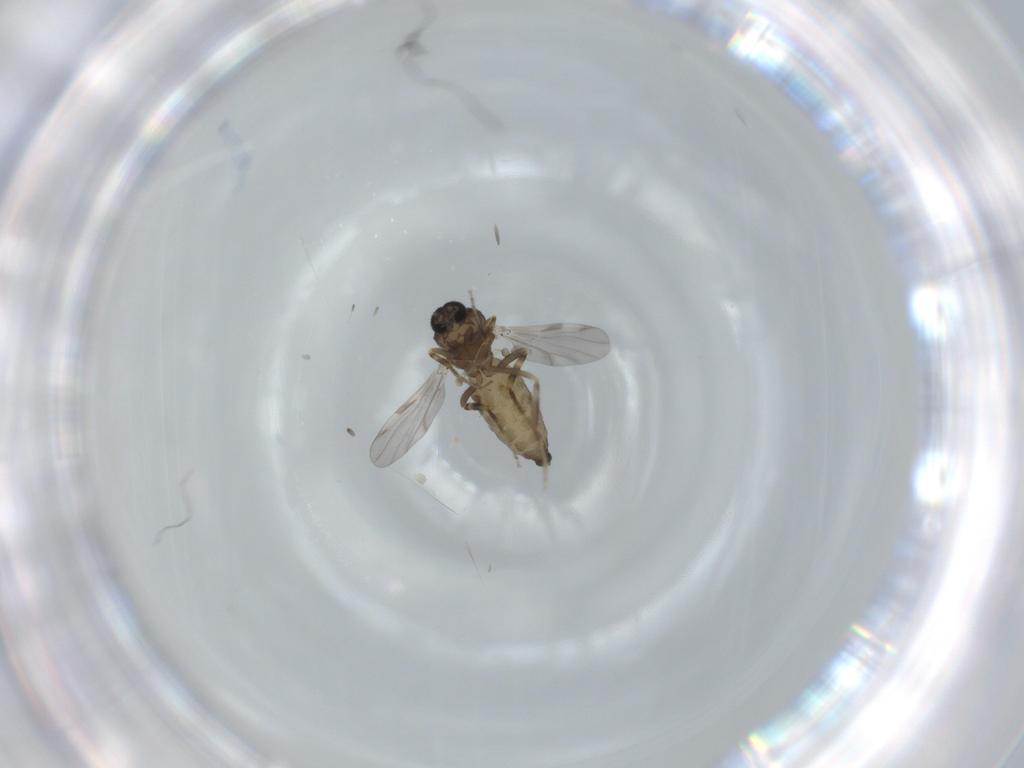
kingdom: Animalia
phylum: Arthropoda
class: Insecta
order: Diptera
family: Ceratopogonidae
